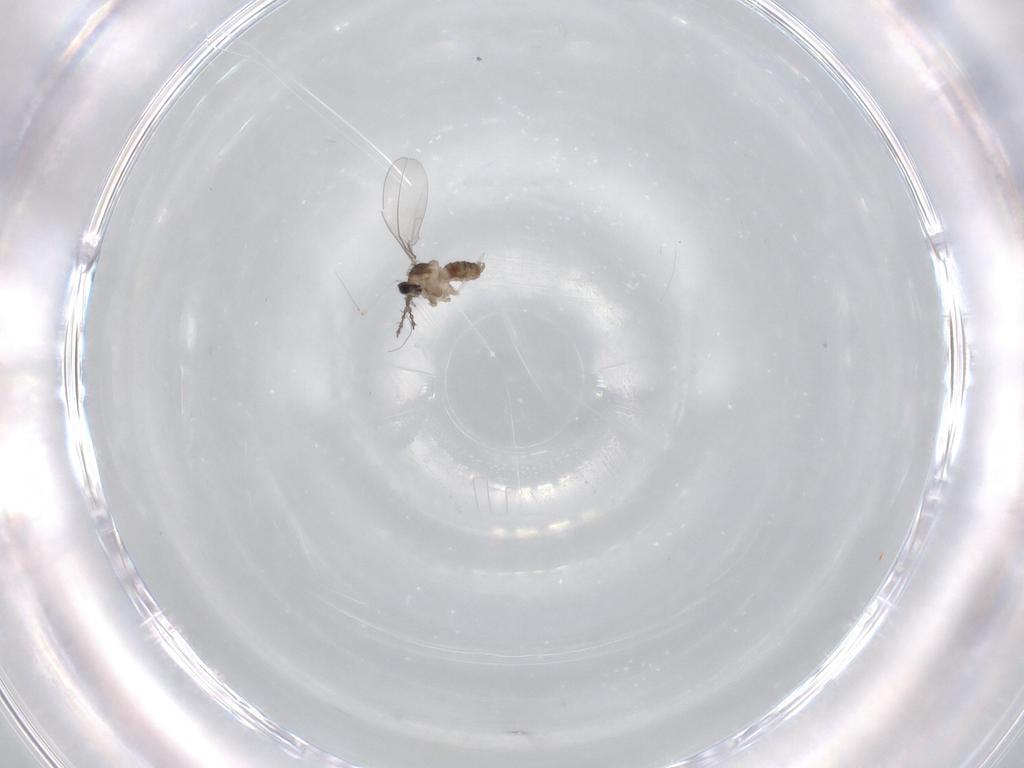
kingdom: Animalia
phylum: Arthropoda
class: Insecta
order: Diptera
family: Cecidomyiidae
